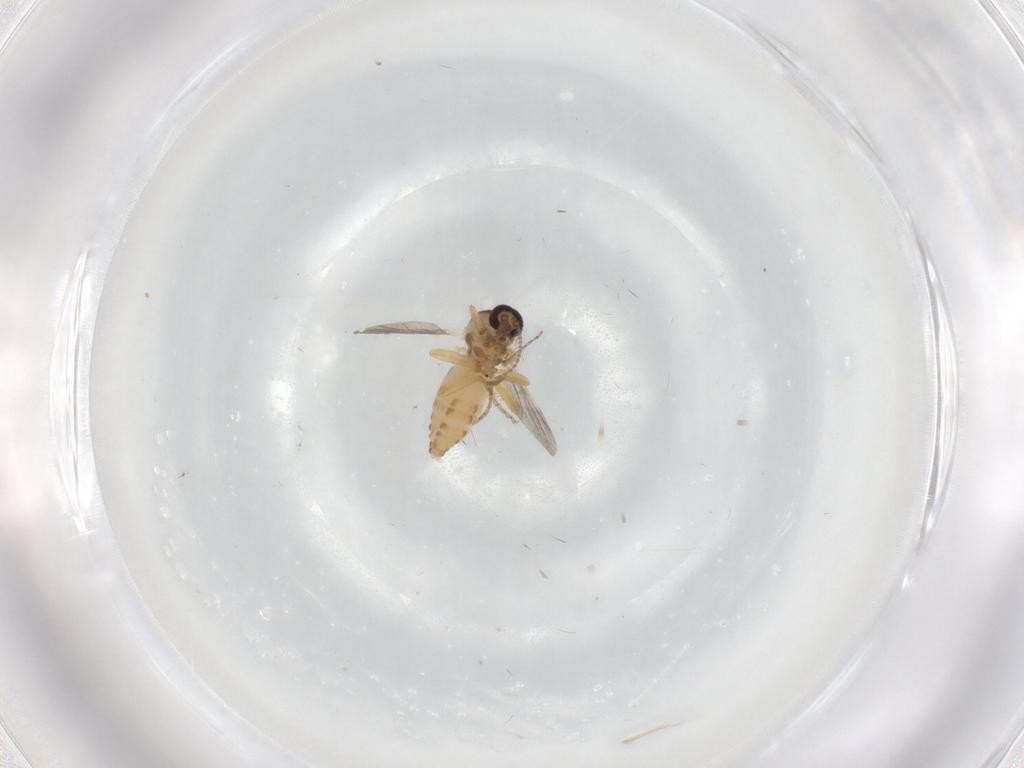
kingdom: Animalia
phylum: Arthropoda
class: Insecta
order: Diptera
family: Ceratopogonidae
